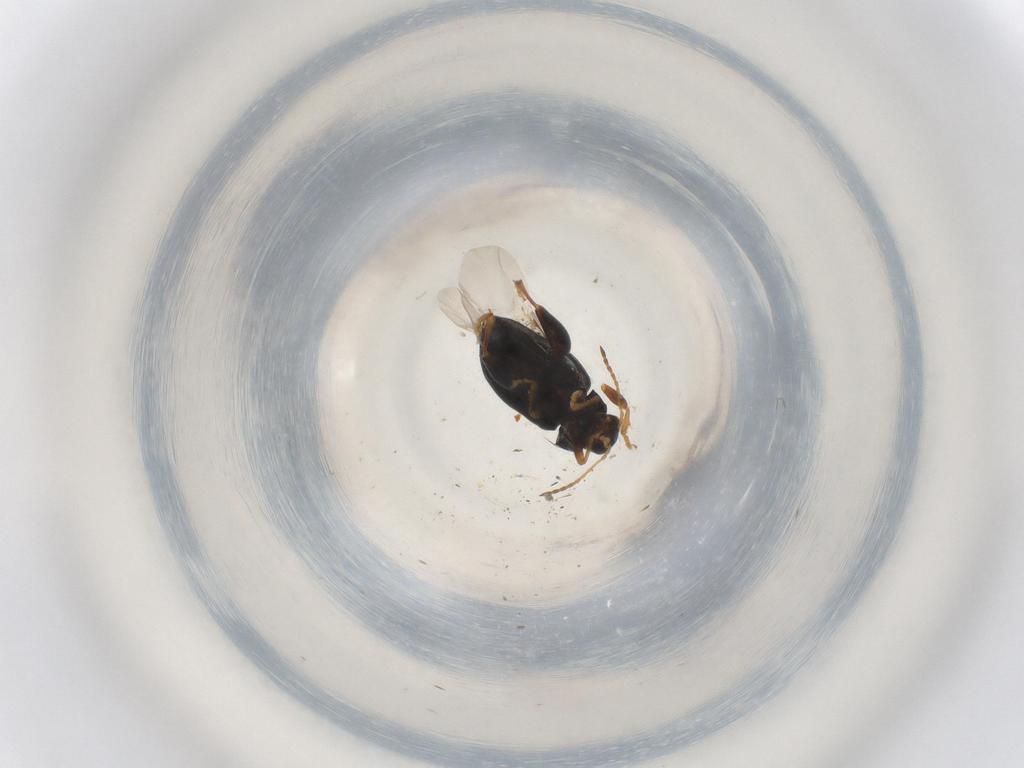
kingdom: Animalia
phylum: Arthropoda
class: Insecta
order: Coleoptera
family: Chrysomelidae
